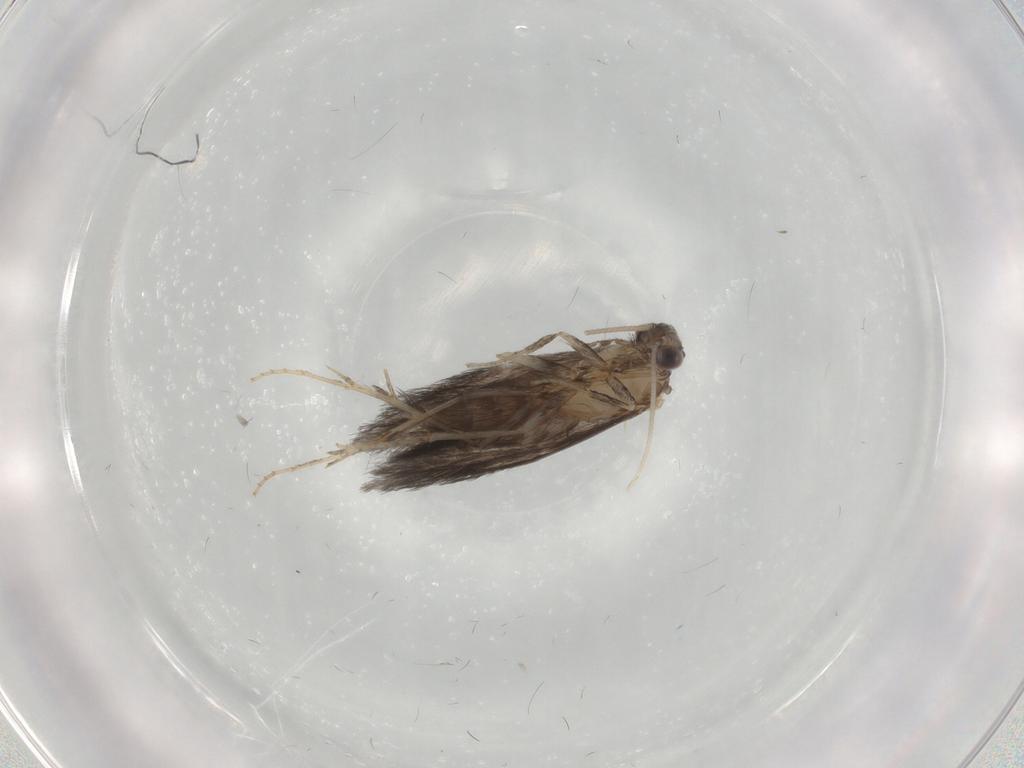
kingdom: Animalia
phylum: Arthropoda
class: Insecta
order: Trichoptera
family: Hydroptilidae
